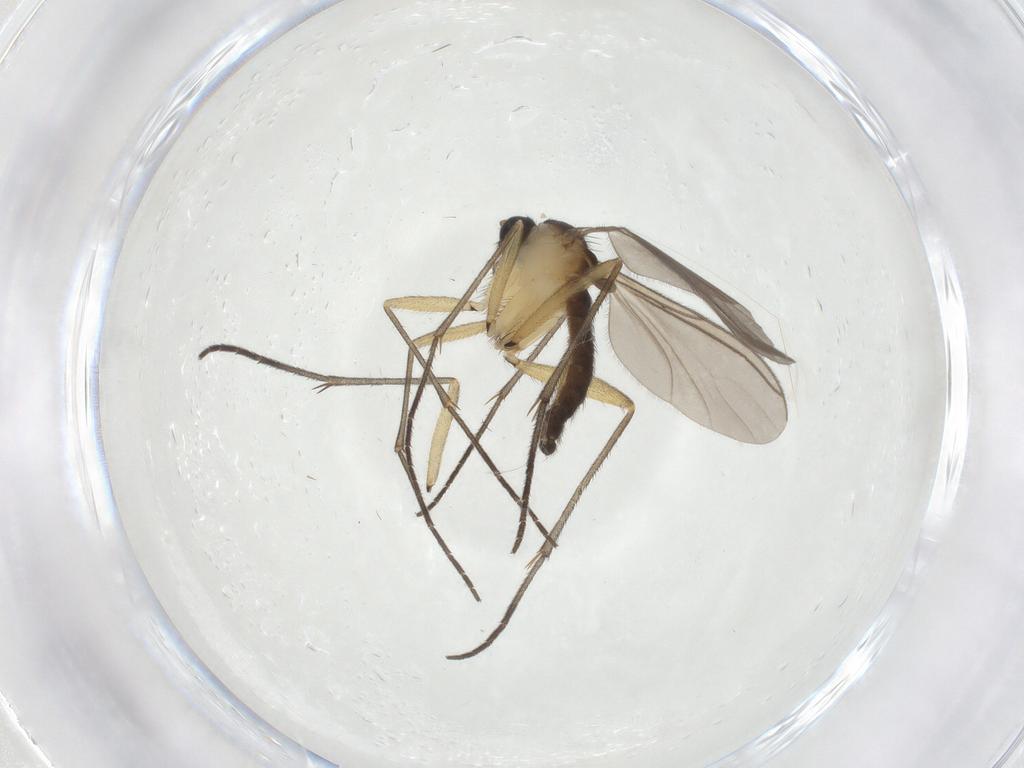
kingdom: Animalia
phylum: Arthropoda
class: Insecta
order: Diptera
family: Sciaridae
